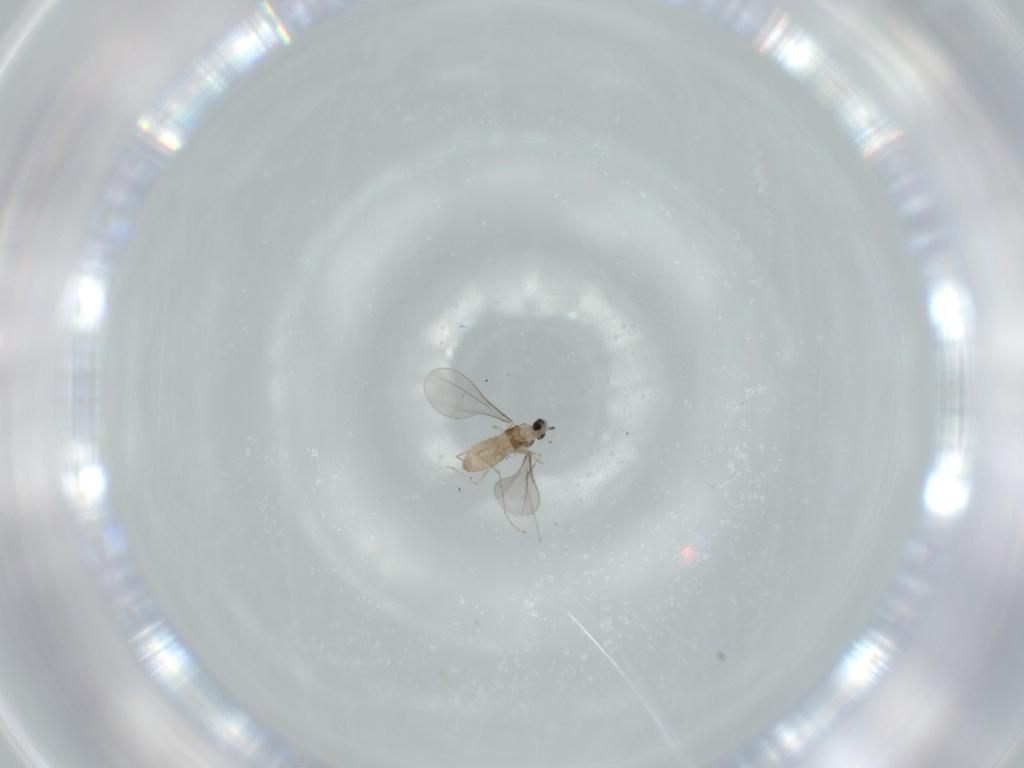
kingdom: Animalia
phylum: Arthropoda
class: Insecta
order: Diptera
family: Cecidomyiidae
